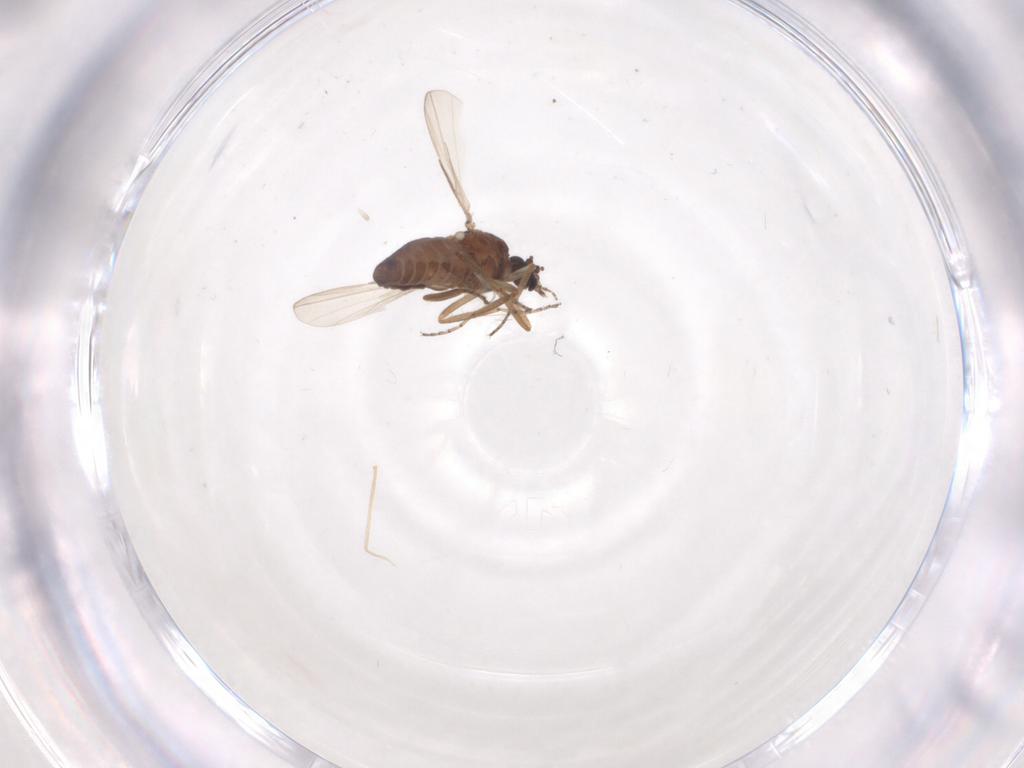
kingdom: Animalia
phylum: Arthropoda
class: Insecta
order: Diptera
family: Ceratopogonidae
